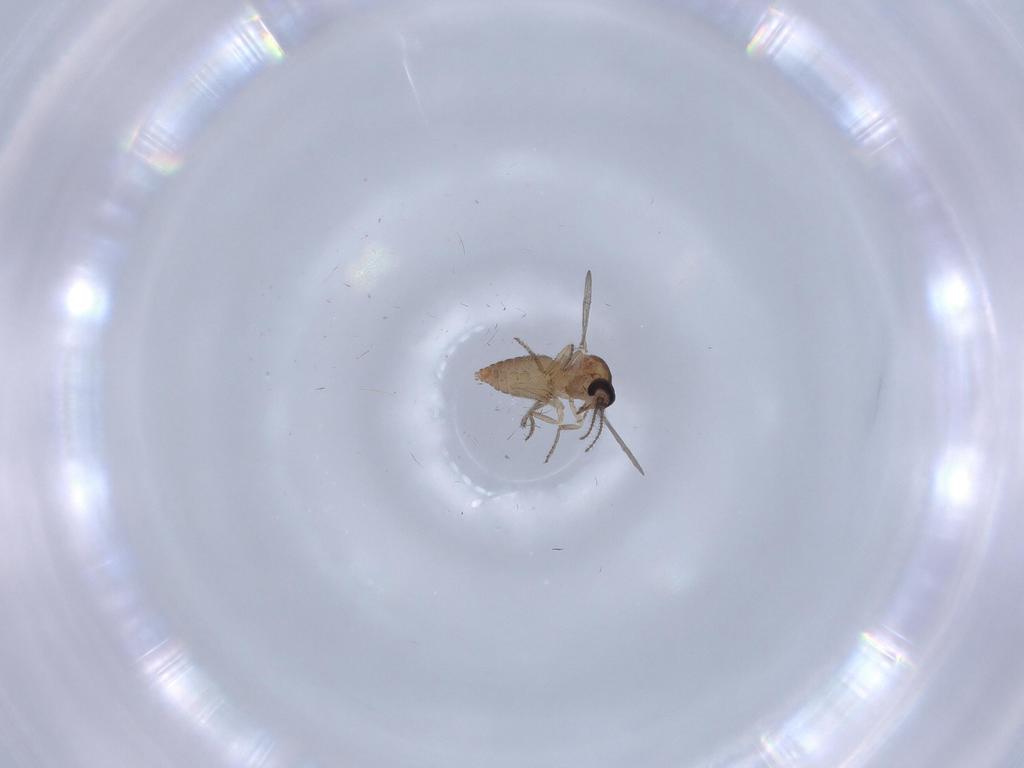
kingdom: Animalia
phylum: Arthropoda
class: Insecta
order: Diptera
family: Ceratopogonidae
